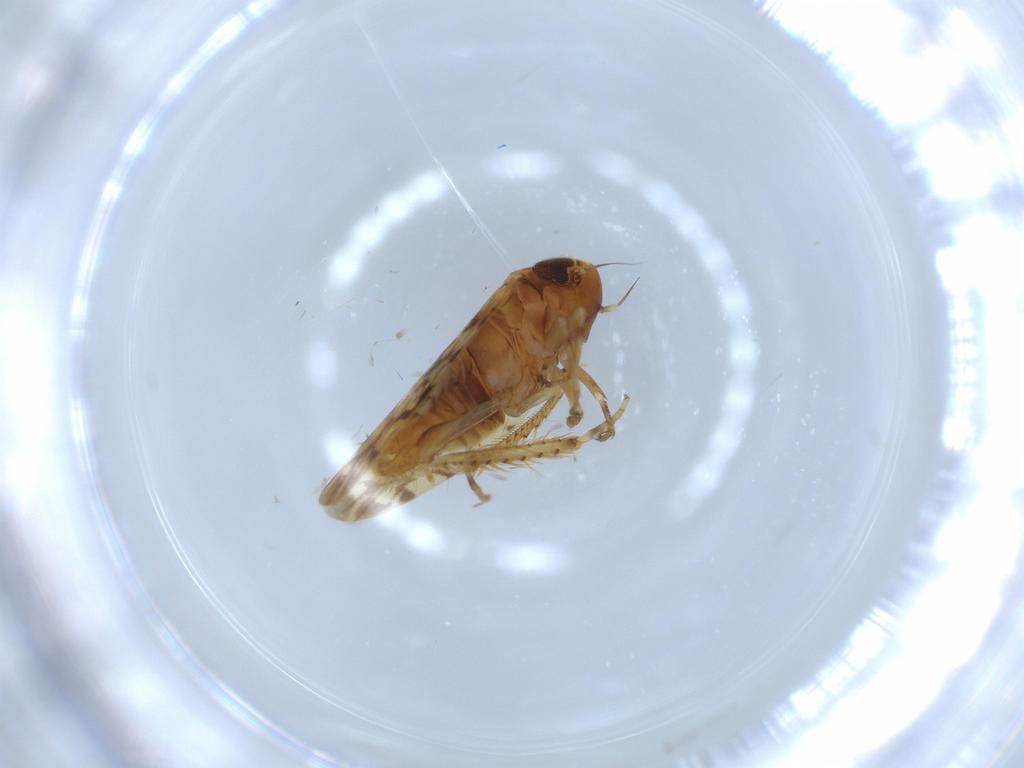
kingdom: Animalia
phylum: Arthropoda
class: Insecta
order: Hemiptera
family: Cicadellidae
